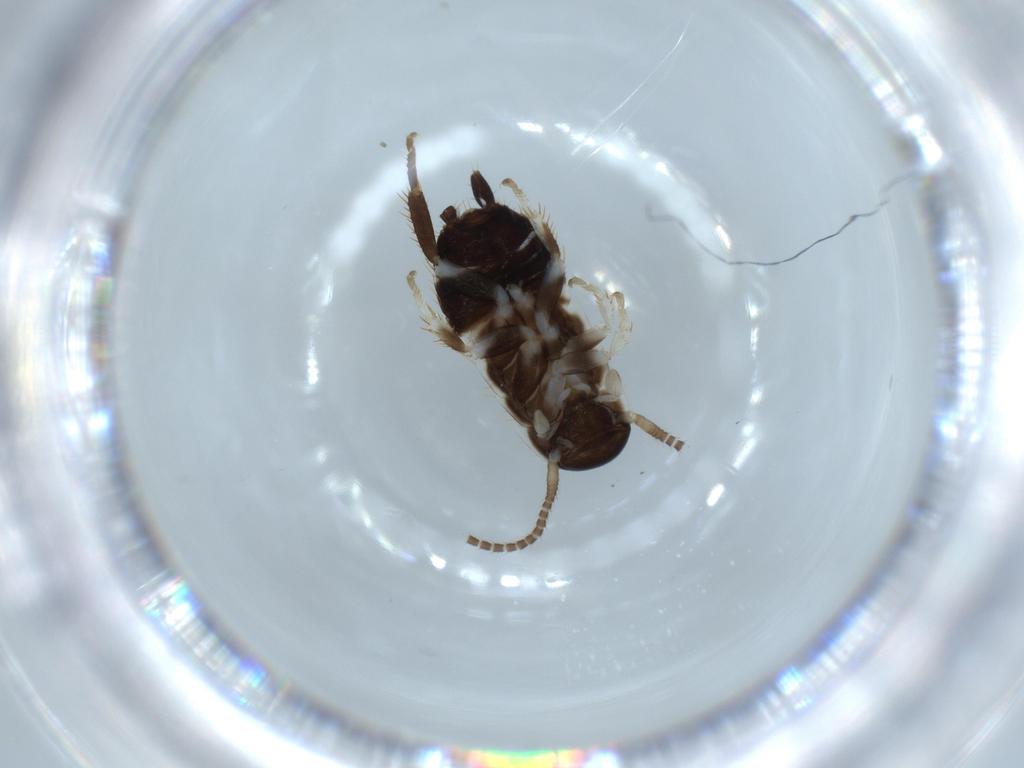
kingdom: Animalia
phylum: Arthropoda
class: Insecta
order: Blattodea
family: Ectobiidae
